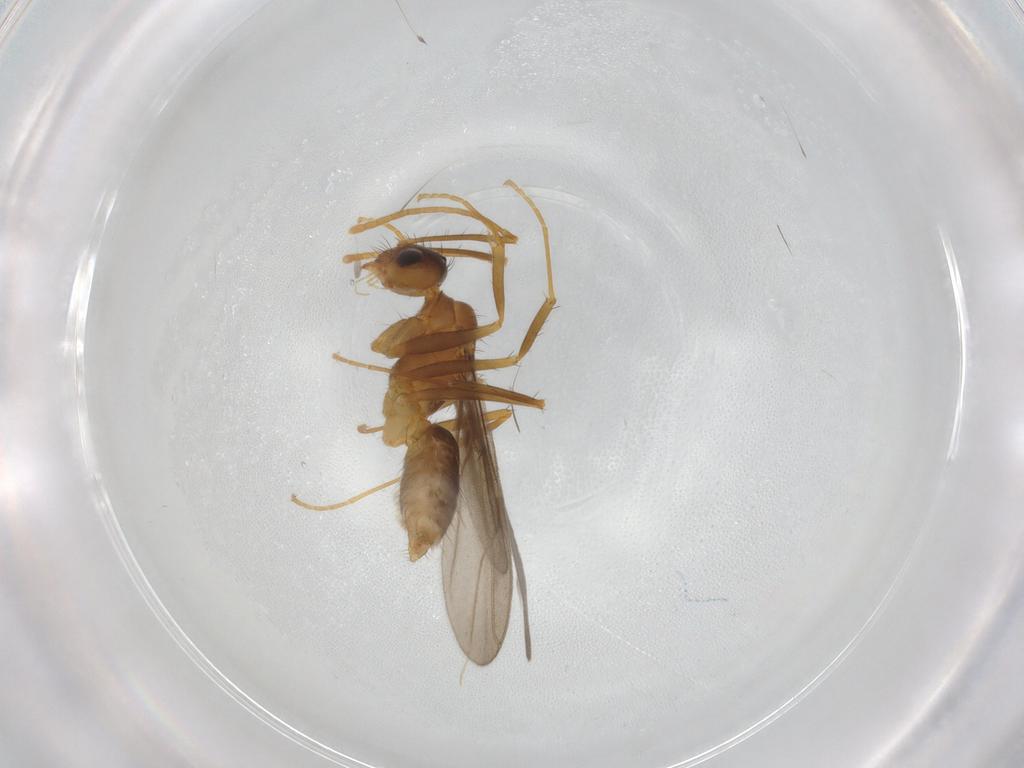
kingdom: Animalia
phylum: Arthropoda
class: Insecta
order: Hymenoptera
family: Formicidae
